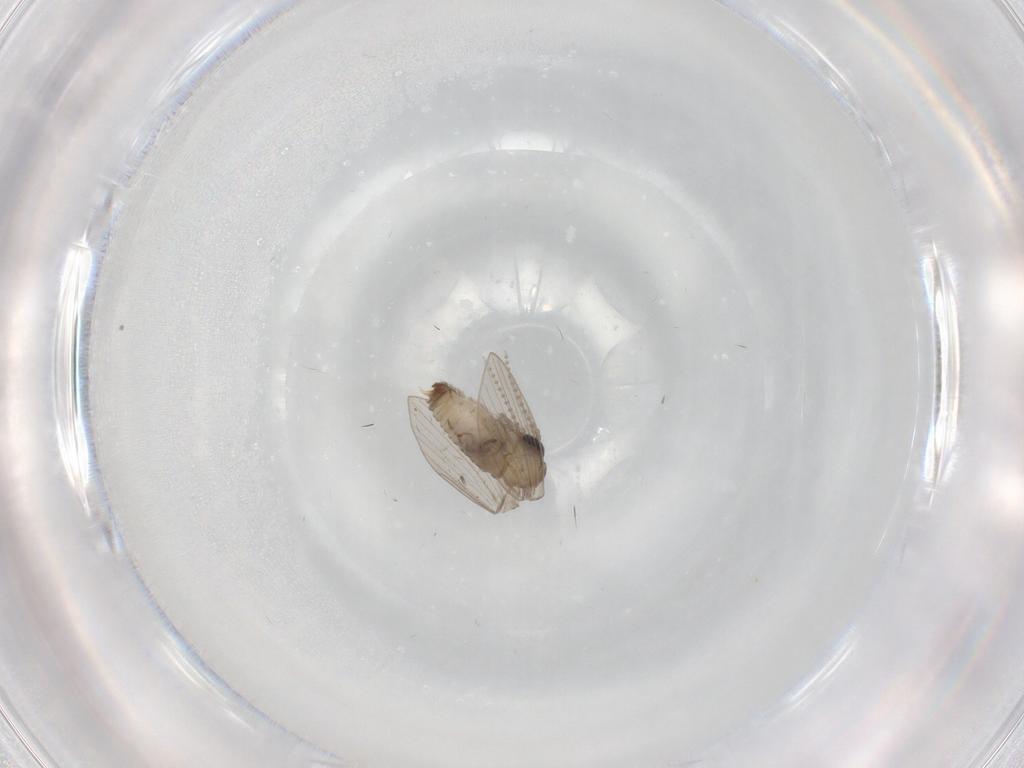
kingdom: Animalia
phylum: Arthropoda
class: Insecta
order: Diptera
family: Psychodidae
